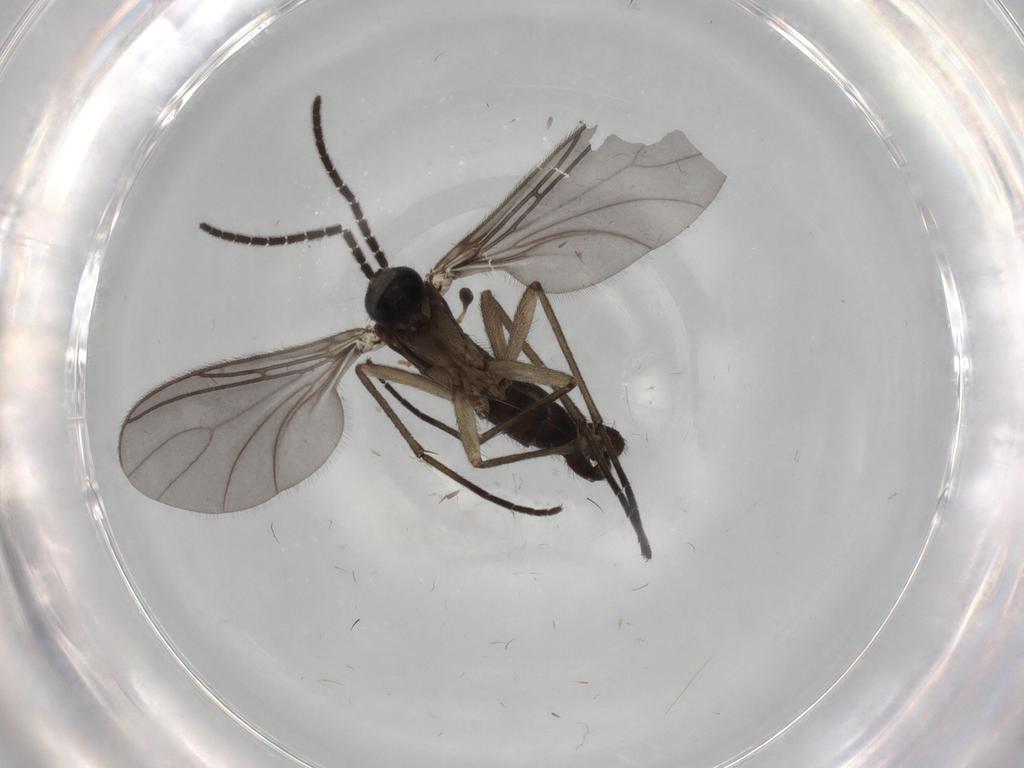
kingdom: Animalia
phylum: Arthropoda
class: Insecta
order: Diptera
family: Sciaridae
